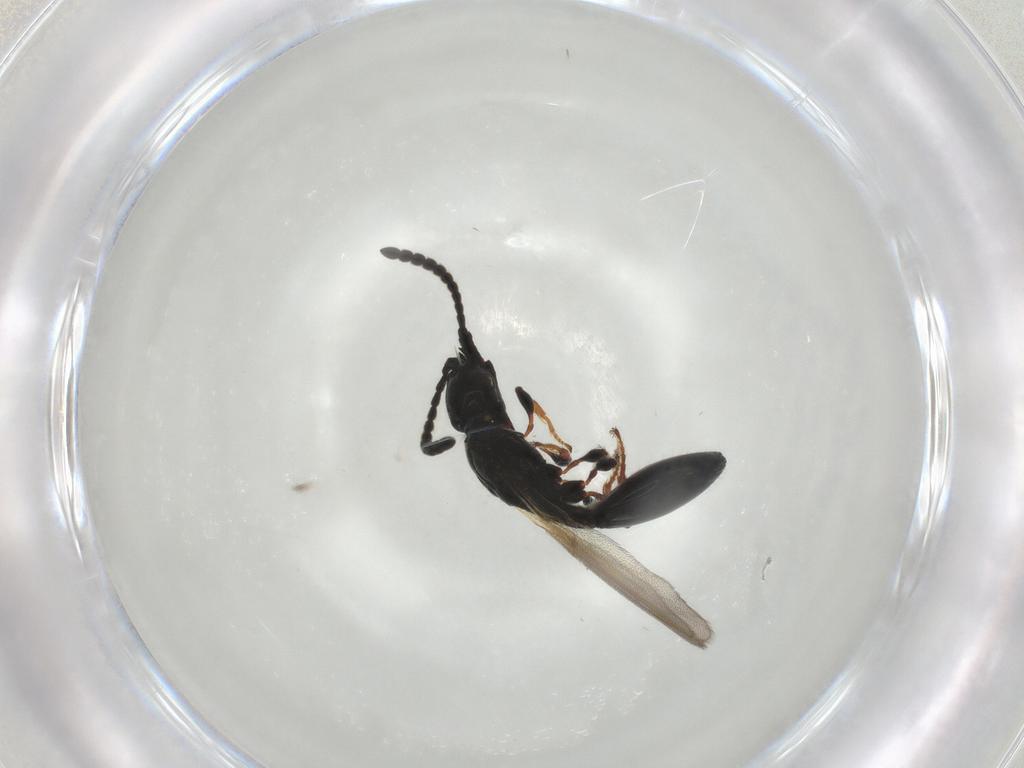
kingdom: Animalia
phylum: Arthropoda
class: Insecta
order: Hymenoptera
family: Diapriidae
